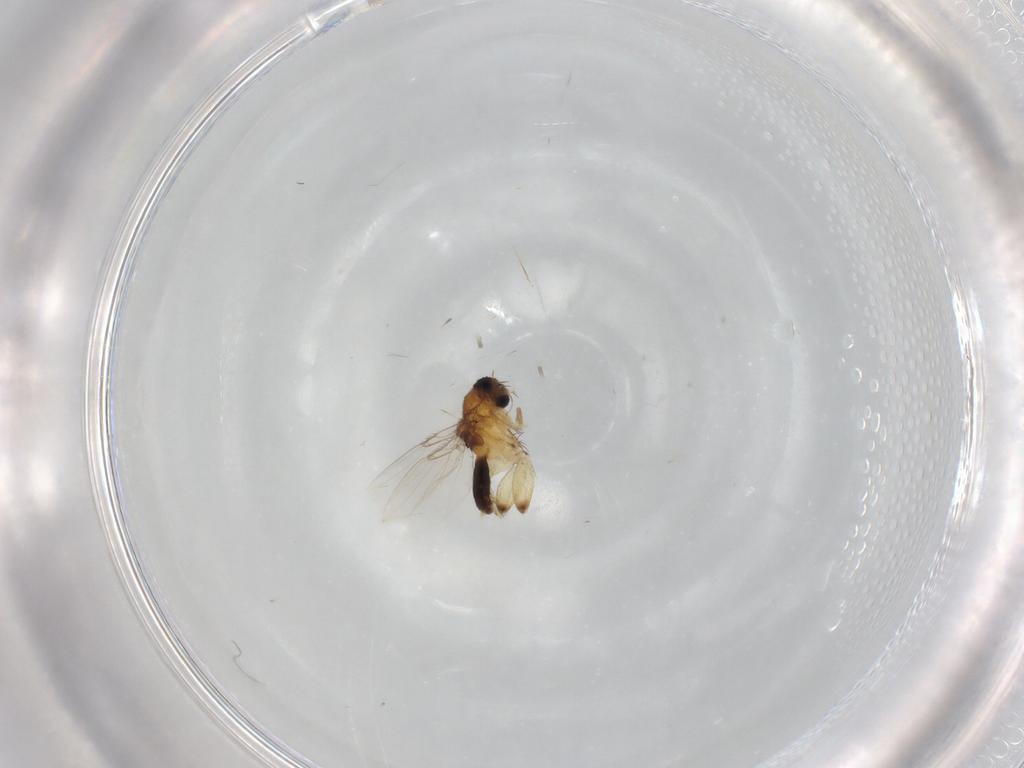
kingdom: Animalia
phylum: Arthropoda
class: Insecta
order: Diptera
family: Phoridae
